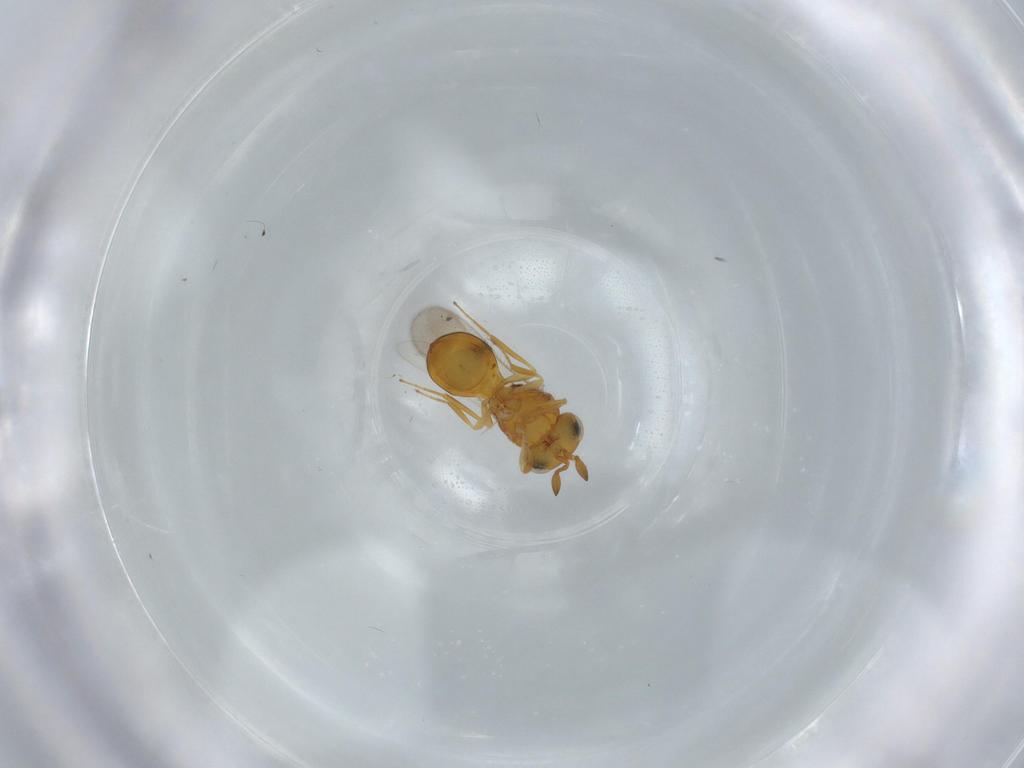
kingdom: Animalia
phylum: Arthropoda
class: Insecta
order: Hymenoptera
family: Scelionidae
